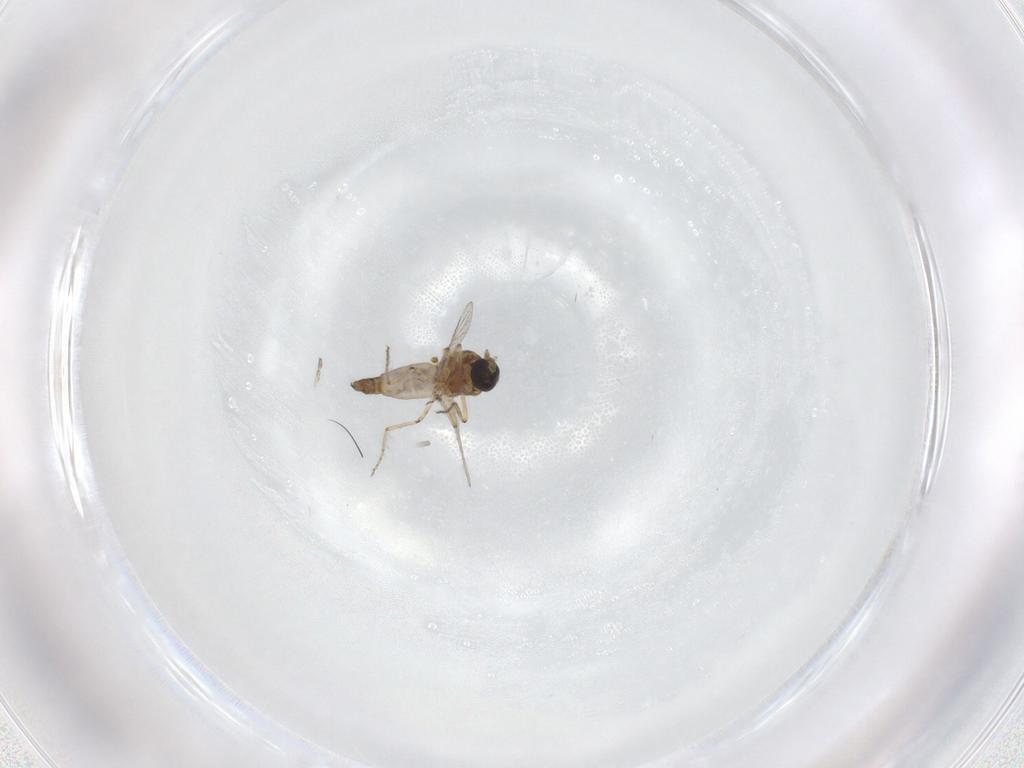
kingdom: Animalia
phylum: Arthropoda
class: Insecta
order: Diptera
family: Ceratopogonidae
